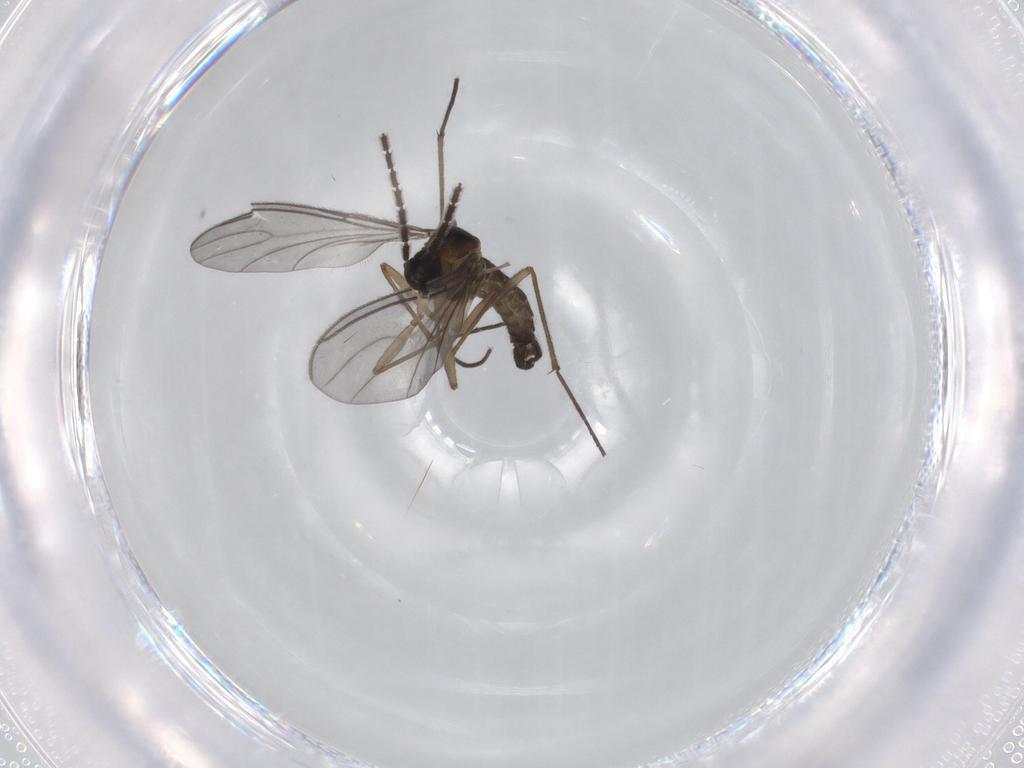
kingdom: Animalia
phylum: Arthropoda
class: Insecta
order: Diptera
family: Sciaridae
